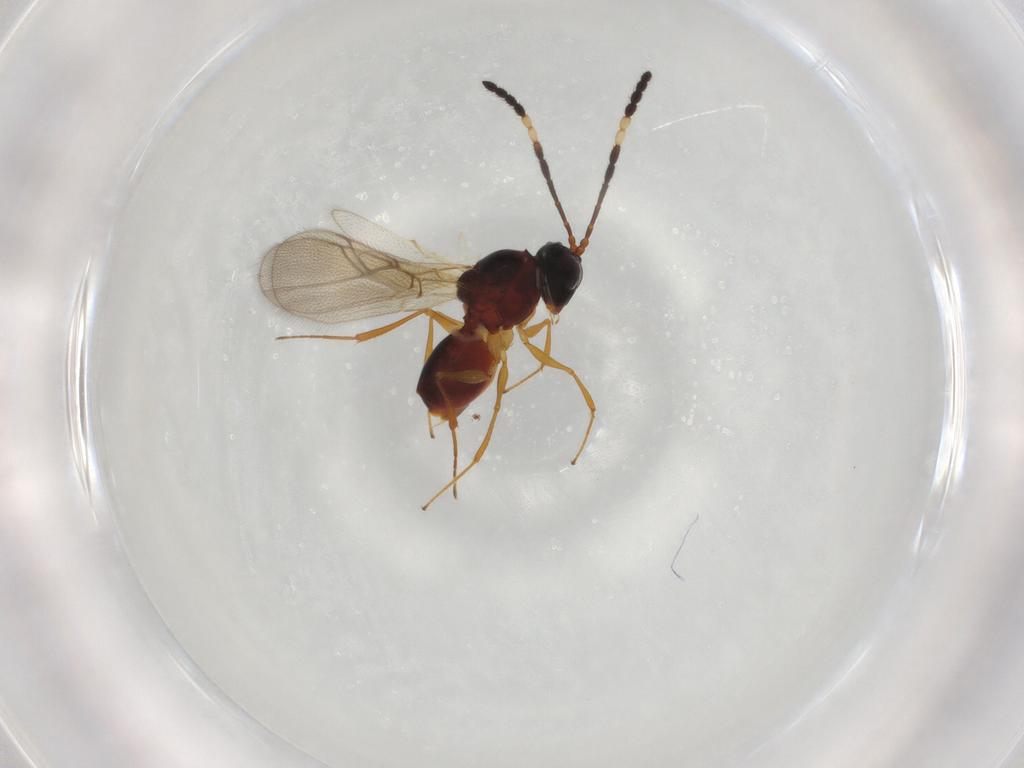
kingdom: Animalia
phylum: Arthropoda
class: Insecta
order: Hymenoptera
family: Figitidae
